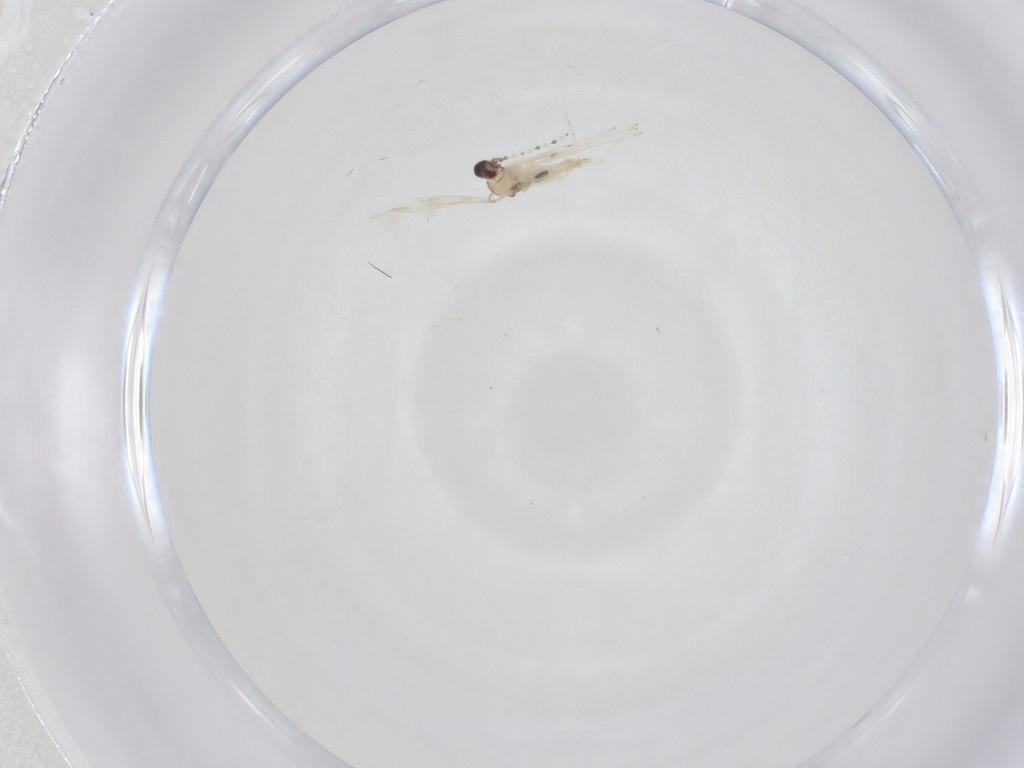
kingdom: Animalia
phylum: Arthropoda
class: Insecta
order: Diptera
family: Cecidomyiidae
